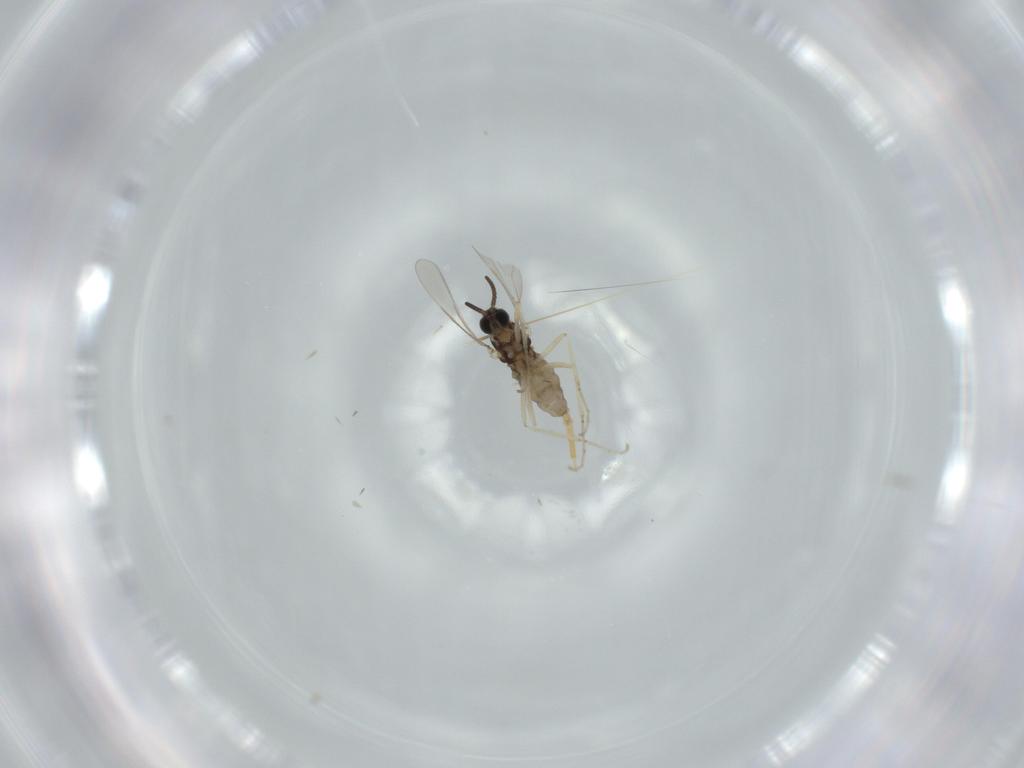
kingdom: Animalia
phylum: Arthropoda
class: Insecta
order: Diptera
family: Cecidomyiidae
